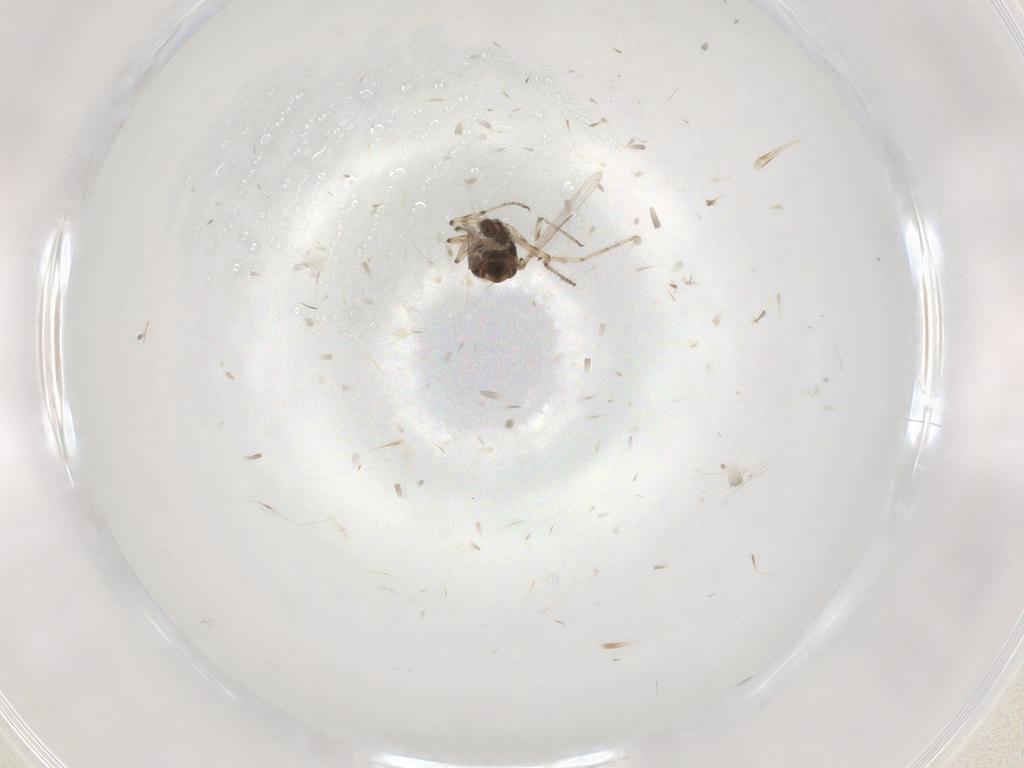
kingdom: Animalia
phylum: Arthropoda
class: Insecta
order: Diptera
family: Ceratopogonidae
